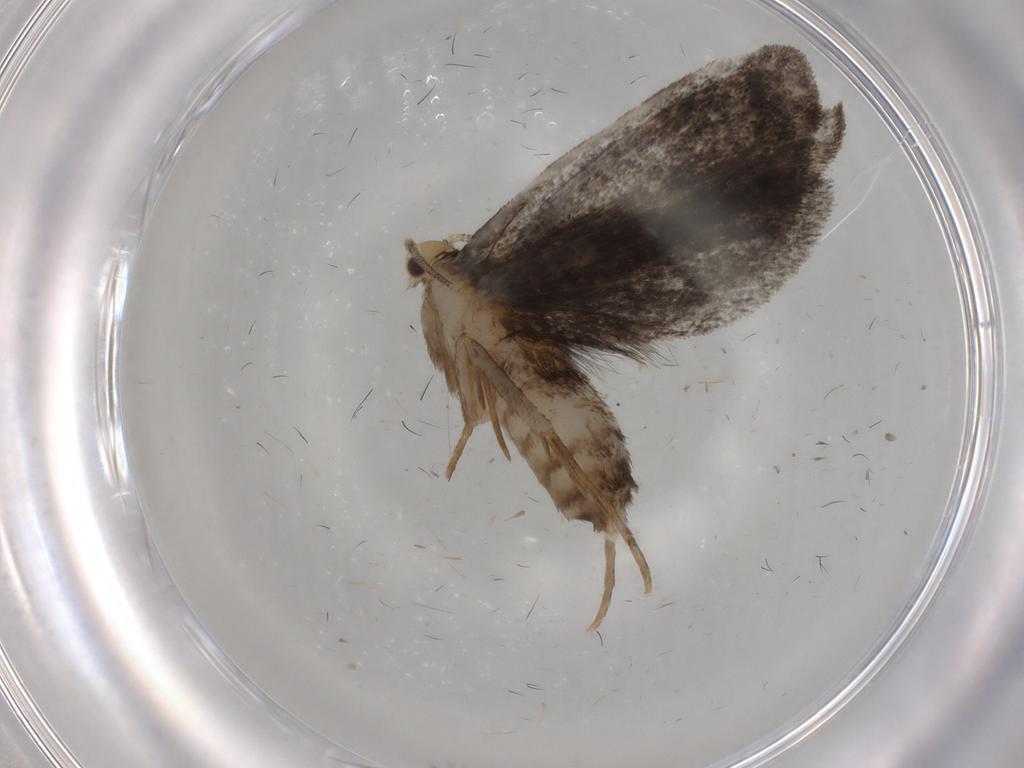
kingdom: Animalia
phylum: Arthropoda
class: Insecta
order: Lepidoptera
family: Dryadaulidae
